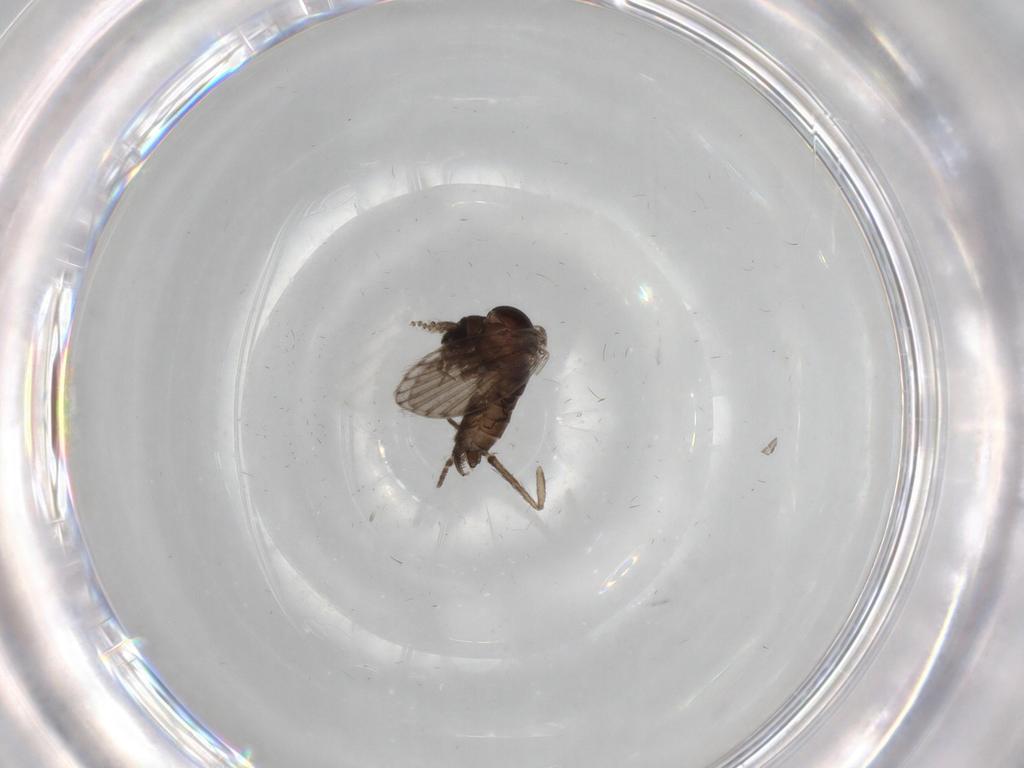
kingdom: Animalia
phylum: Arthropoda
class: Insecta
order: Diptera
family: Psychodidae
